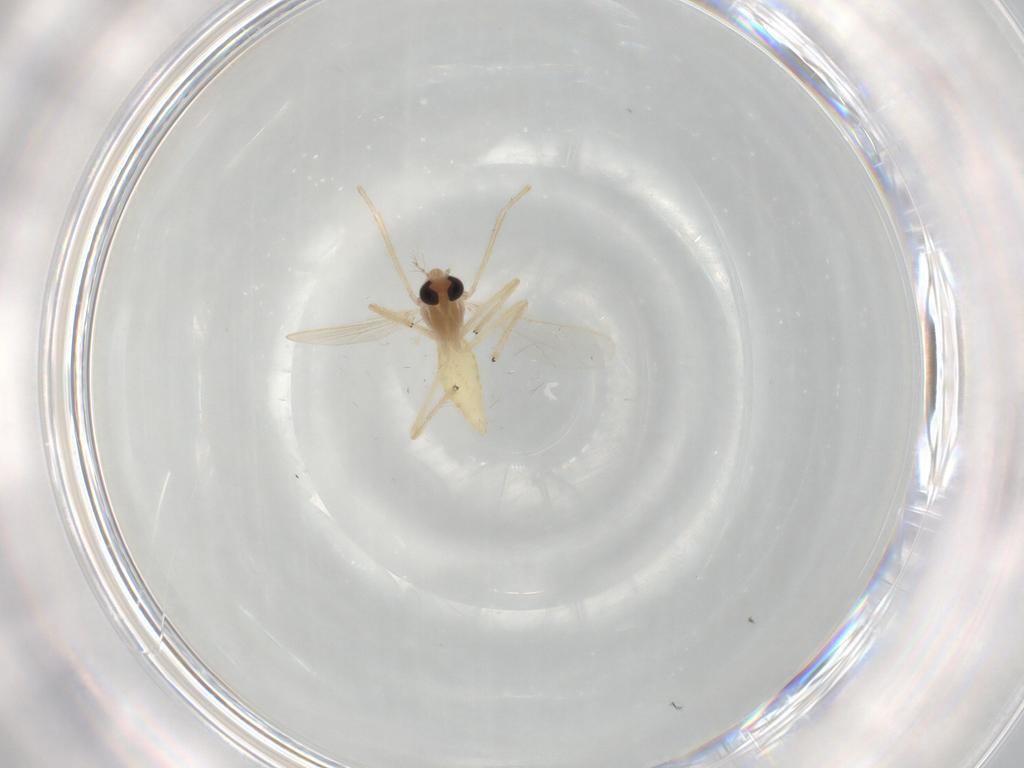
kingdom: Animalia
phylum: Arthropoda
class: Insecta
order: Diptera
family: Chironomidae
